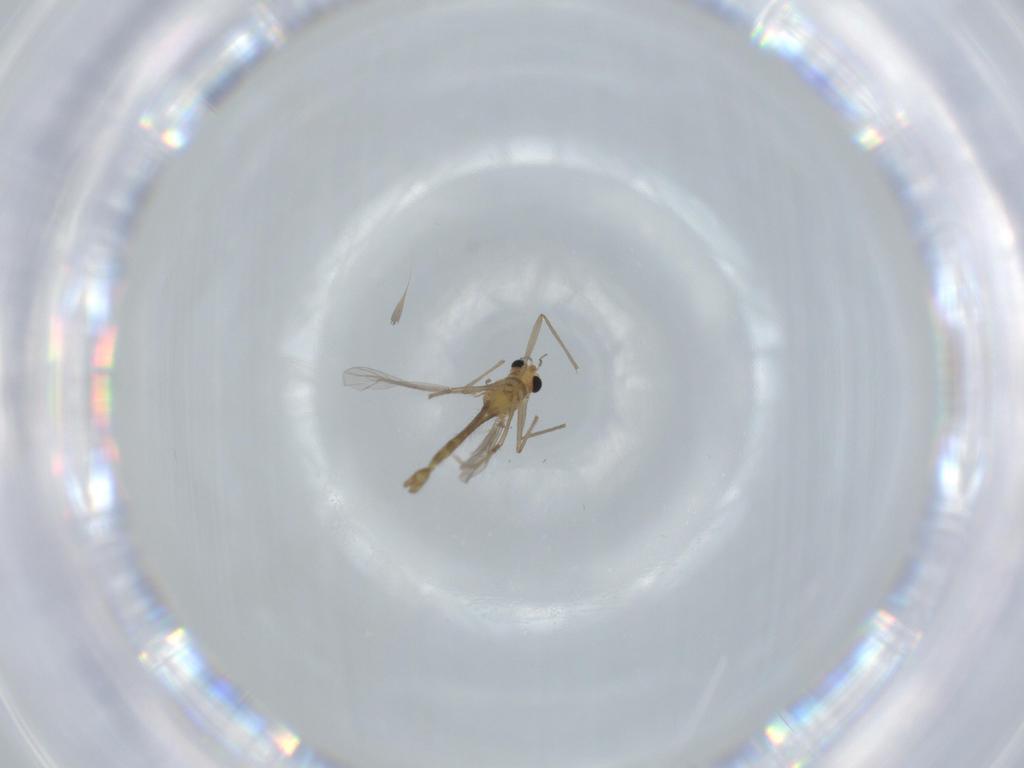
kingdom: Animalia
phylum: Arthropoda
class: Insecta
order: Diptera
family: Chironomidae
